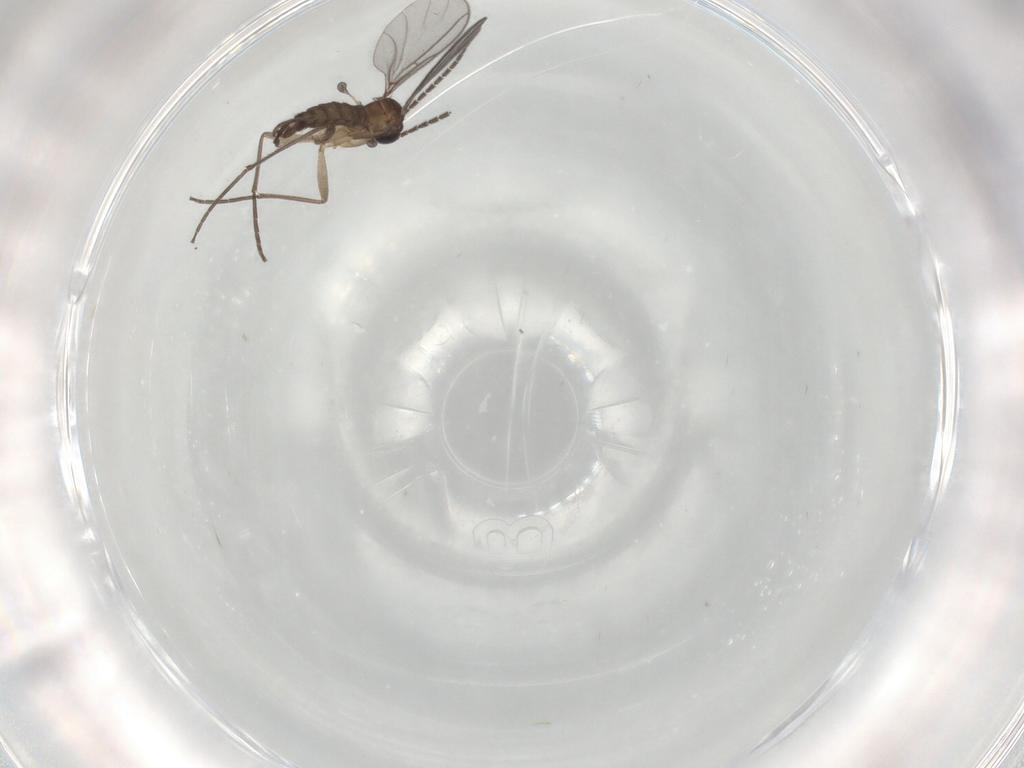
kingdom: Animalia
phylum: Arthropoda
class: Insecta
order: Diptera
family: Sciaridae
